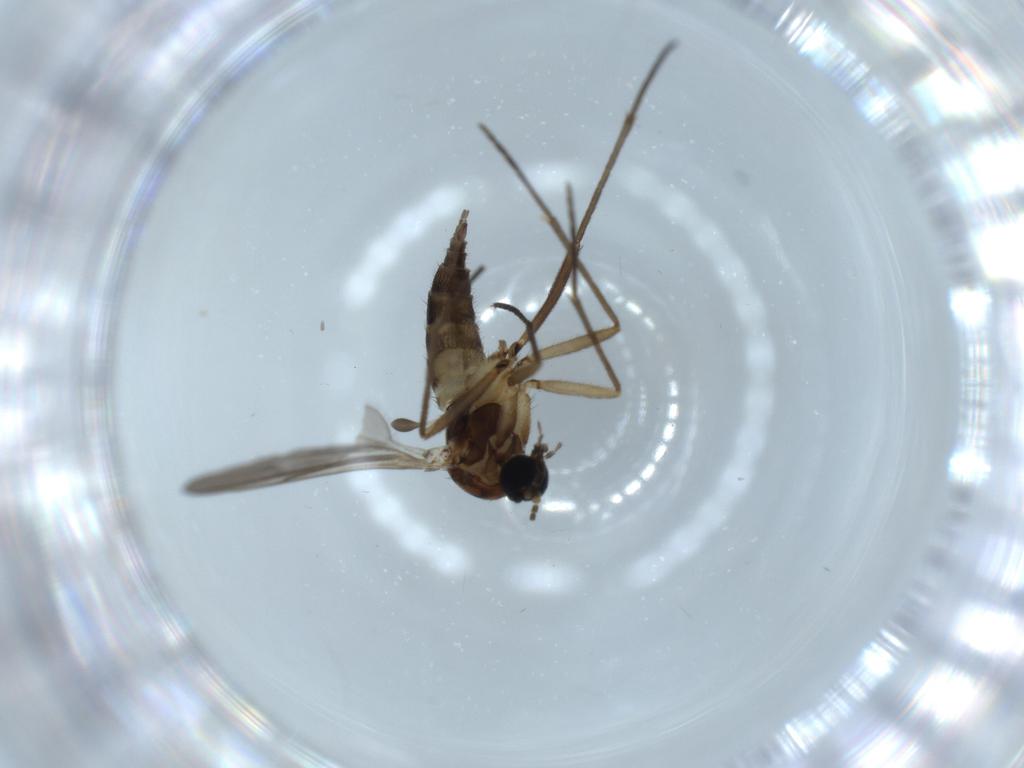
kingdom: Animalia
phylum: Arthropoda
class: Insecta
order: Diptera
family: Sciaridae
